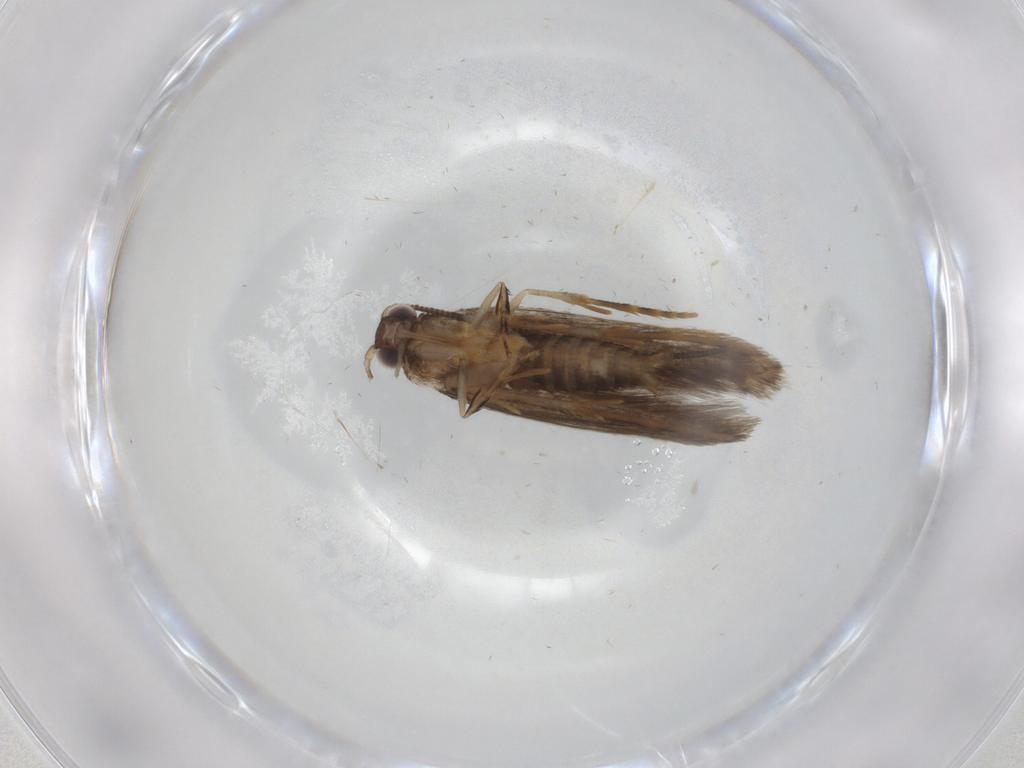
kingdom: Animalia
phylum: Arthropoda
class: Insecta
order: Lepidoptera
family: Tineidae
